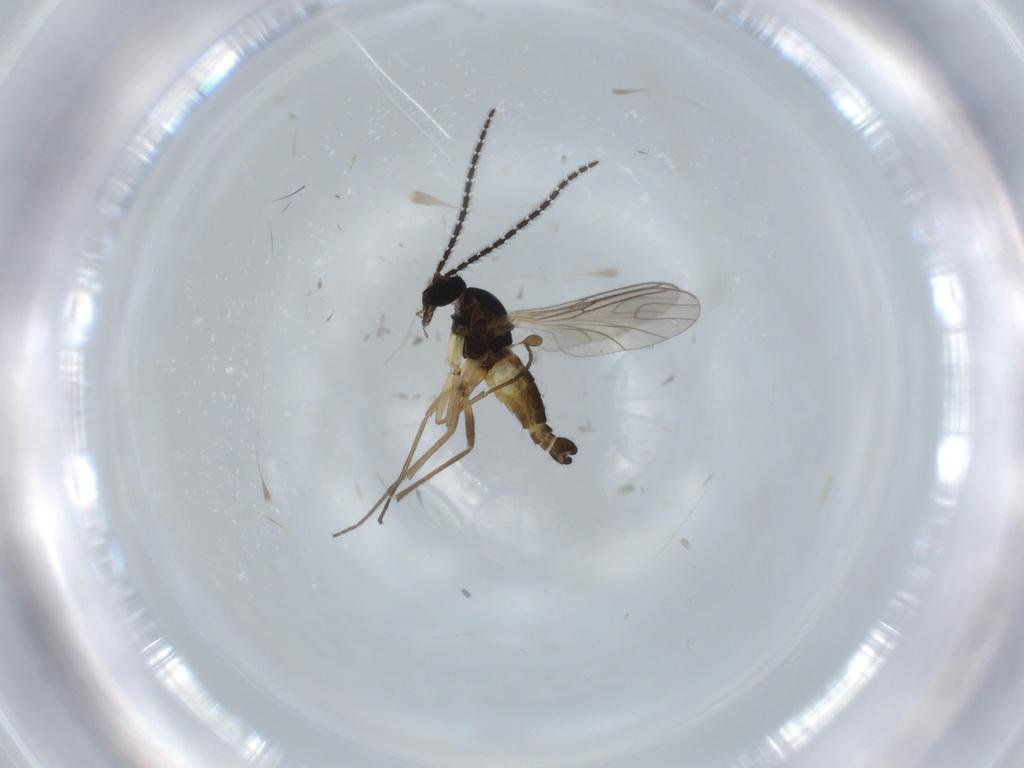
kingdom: Animalia
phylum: Arthropoda
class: Insecta
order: Diptera
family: Sciaridae
